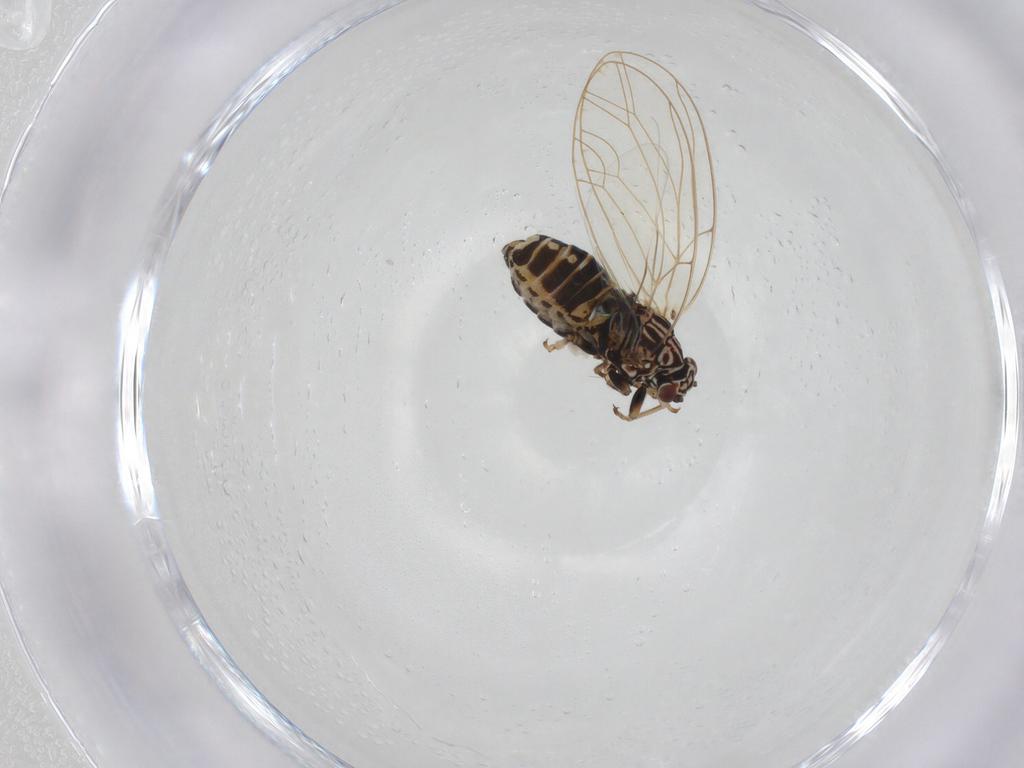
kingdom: Animalia
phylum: Arthropoda
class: Insecta
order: Hemiptera
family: Triozidae
